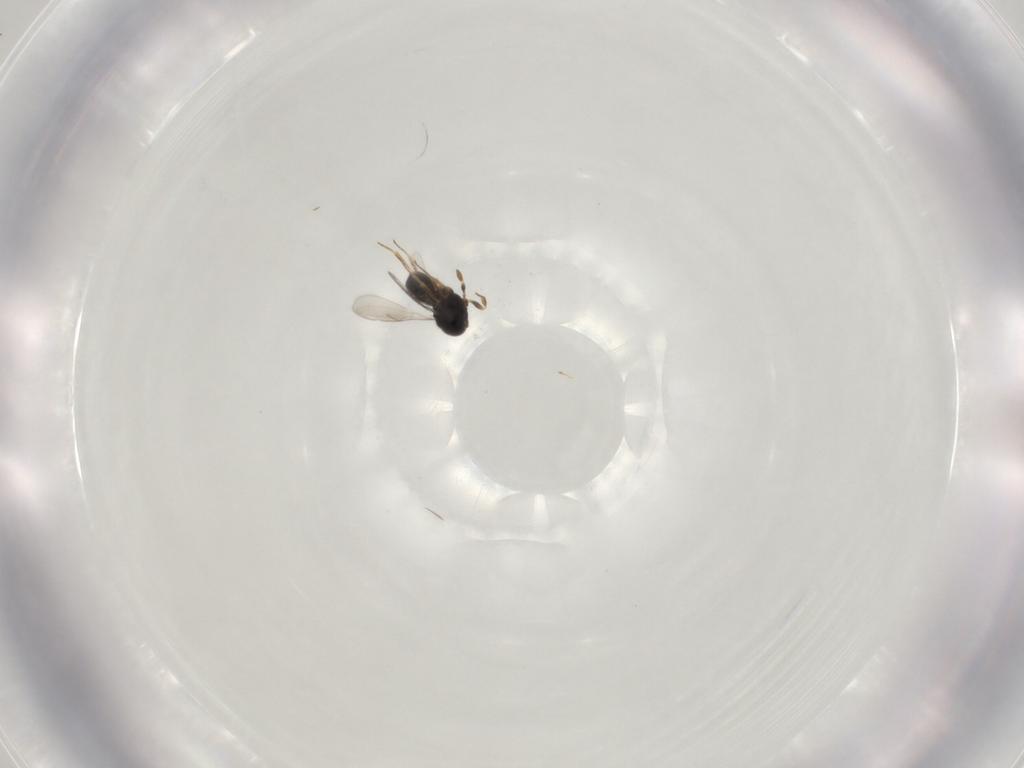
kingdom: Animalia
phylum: Arthropoda
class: Insecta
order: Hymenoptera
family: Scelionidae
